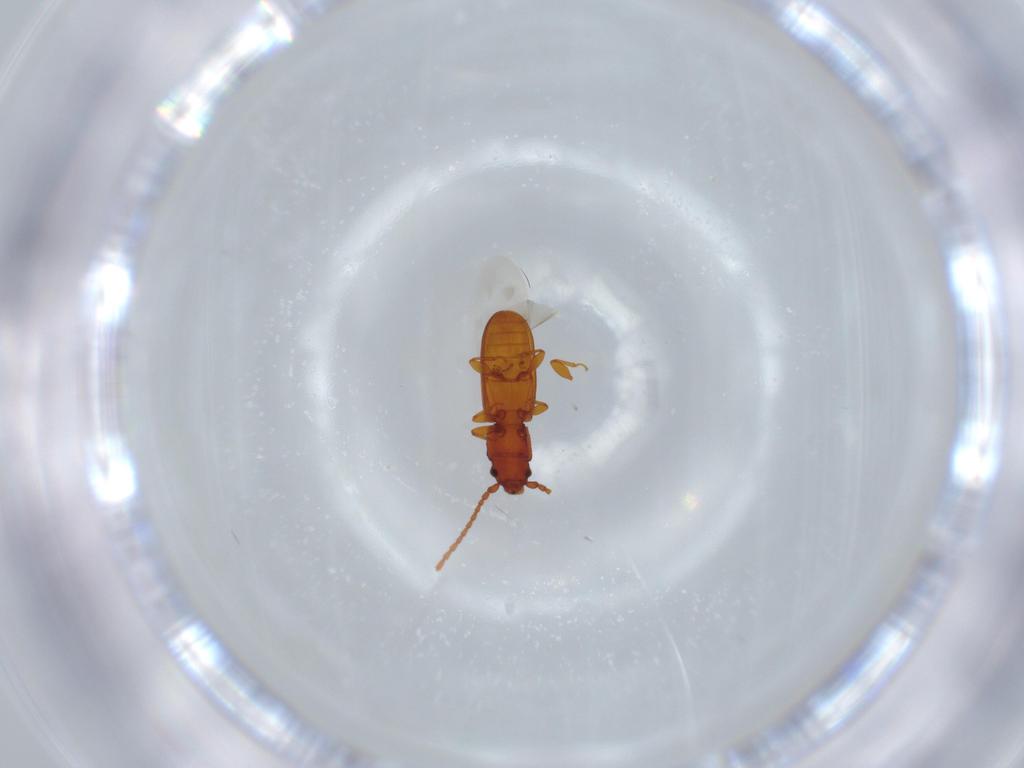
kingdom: Animalia
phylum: Arthropoda
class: Insecta
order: Coleoptera
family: Laemophloeidae
